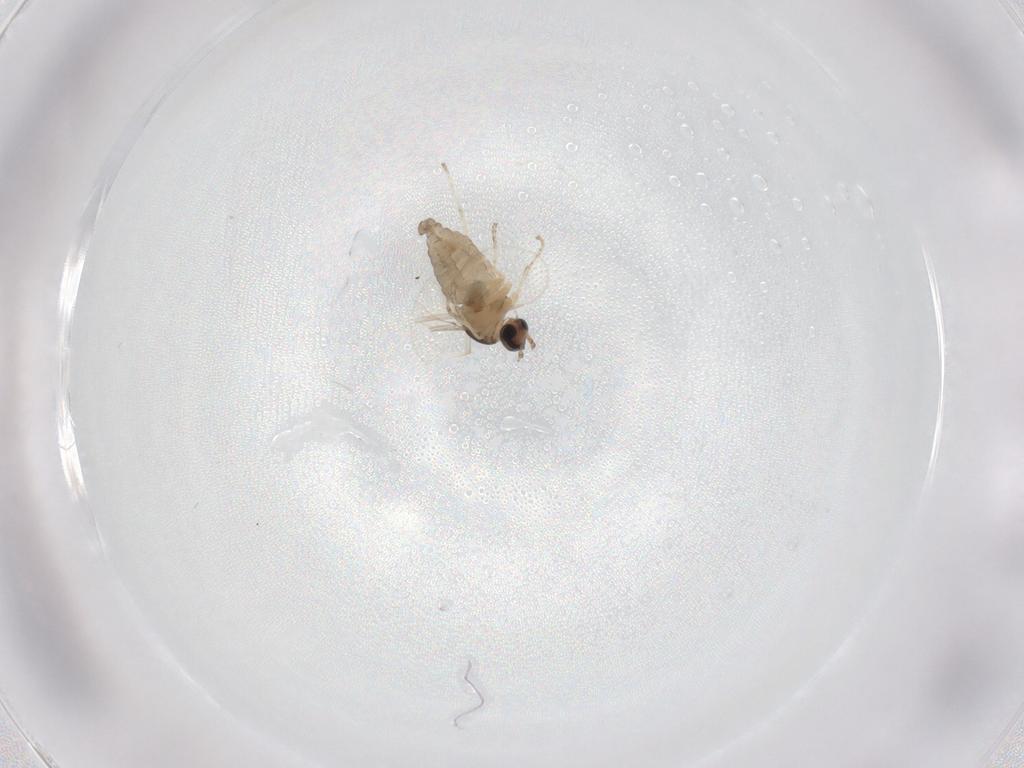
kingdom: Animalia
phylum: Arthropoda
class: Insecta
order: Diptera
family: Cecidomyiidae
